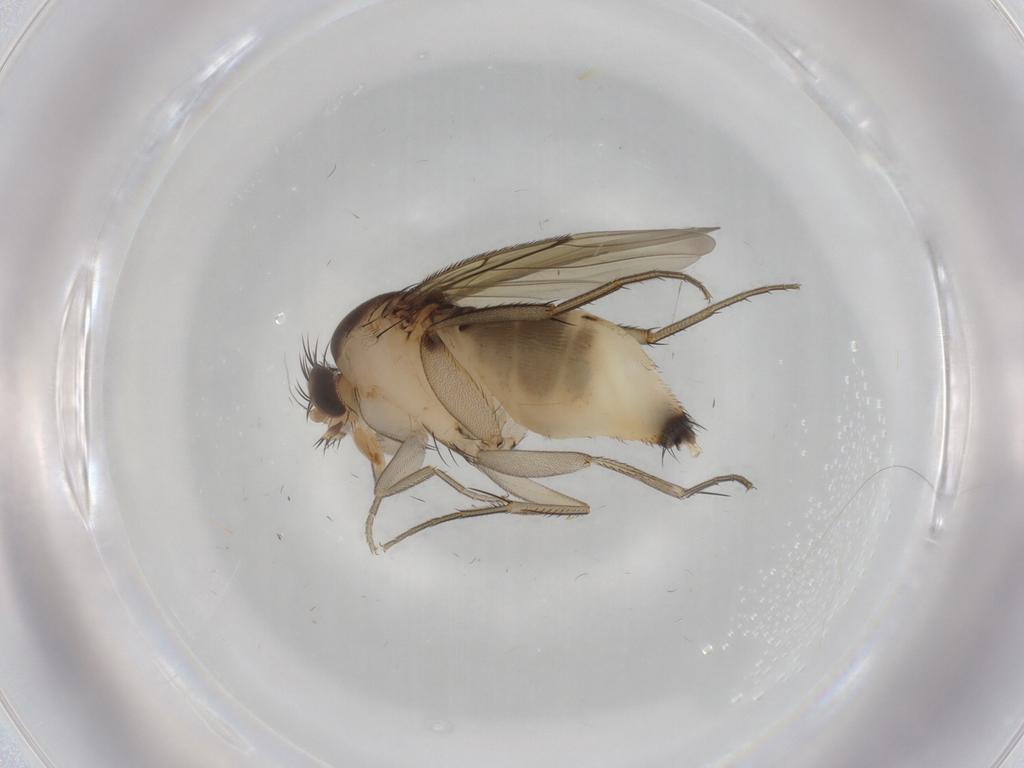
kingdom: Animalia
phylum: Arthropoda
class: Insecta
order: Diptera
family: Phoridae
